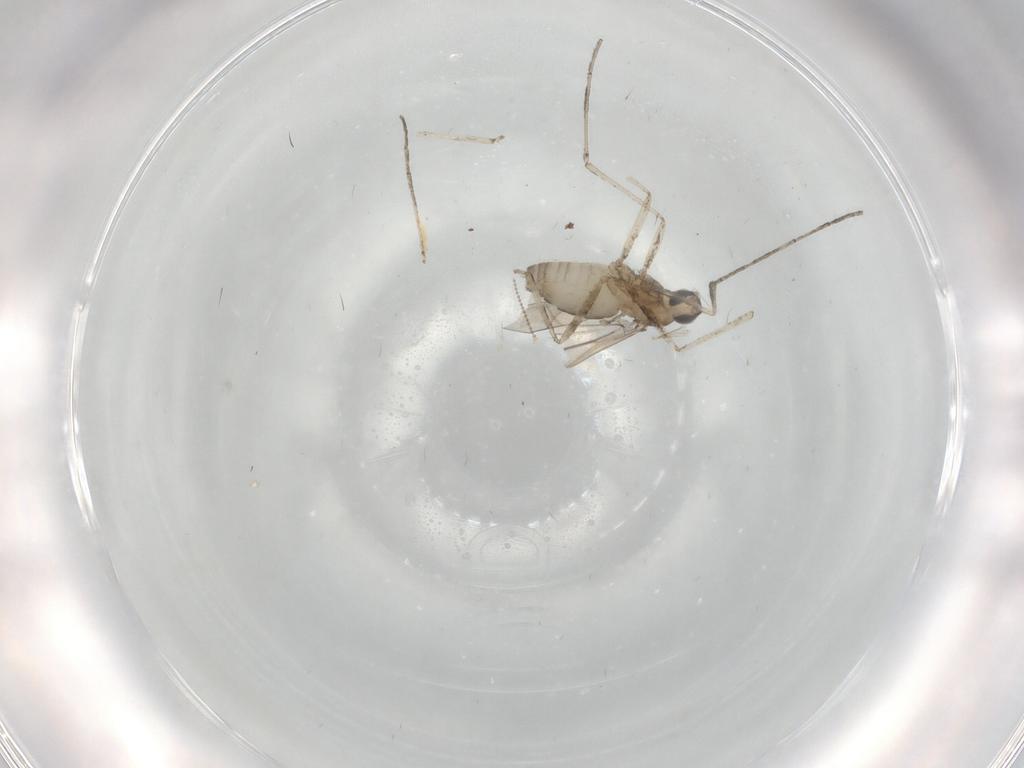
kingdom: Animalia
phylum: Arthropoda
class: Insecta
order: Diptera
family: Cecidomyiidae
